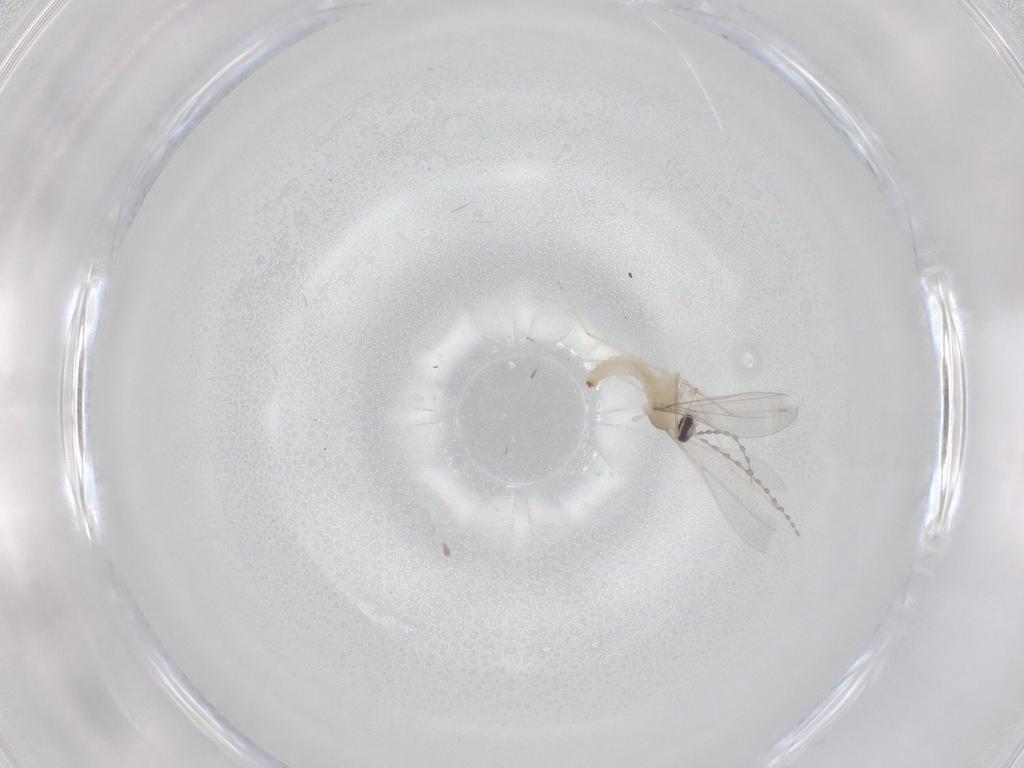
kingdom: Animalia
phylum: Arthropoda
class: Insecta
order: Diptera
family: Cecidomyiidae
